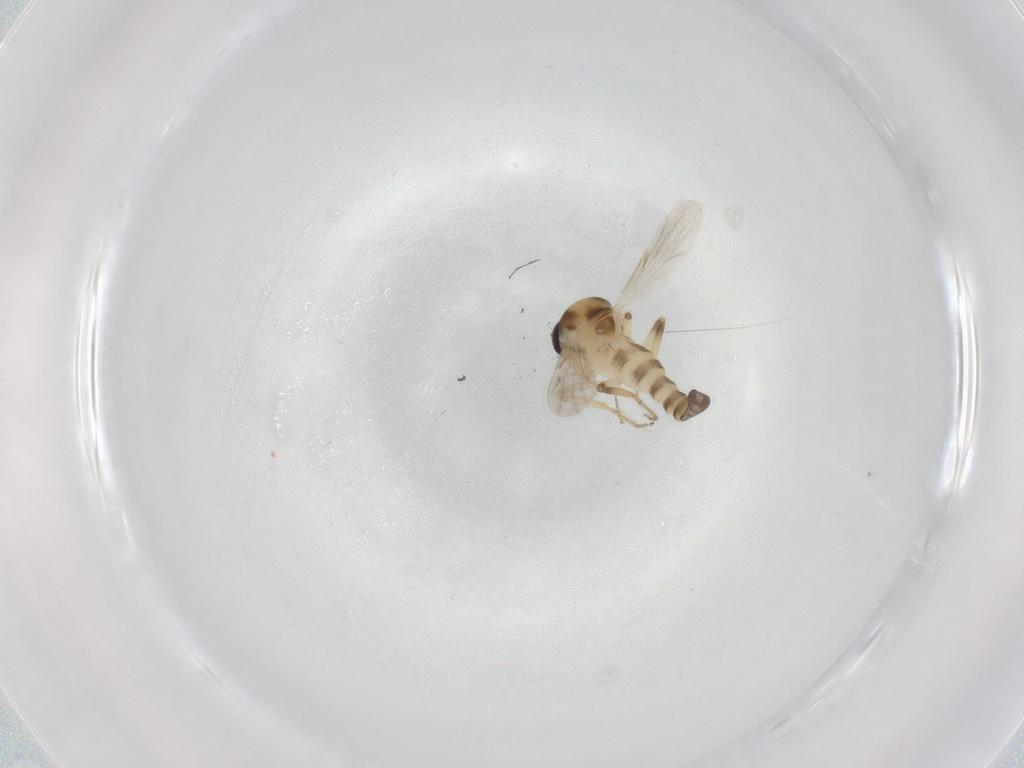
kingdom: Animalia
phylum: Arthropoda
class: Insecta
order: Diptera
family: Ceratopogonidae
